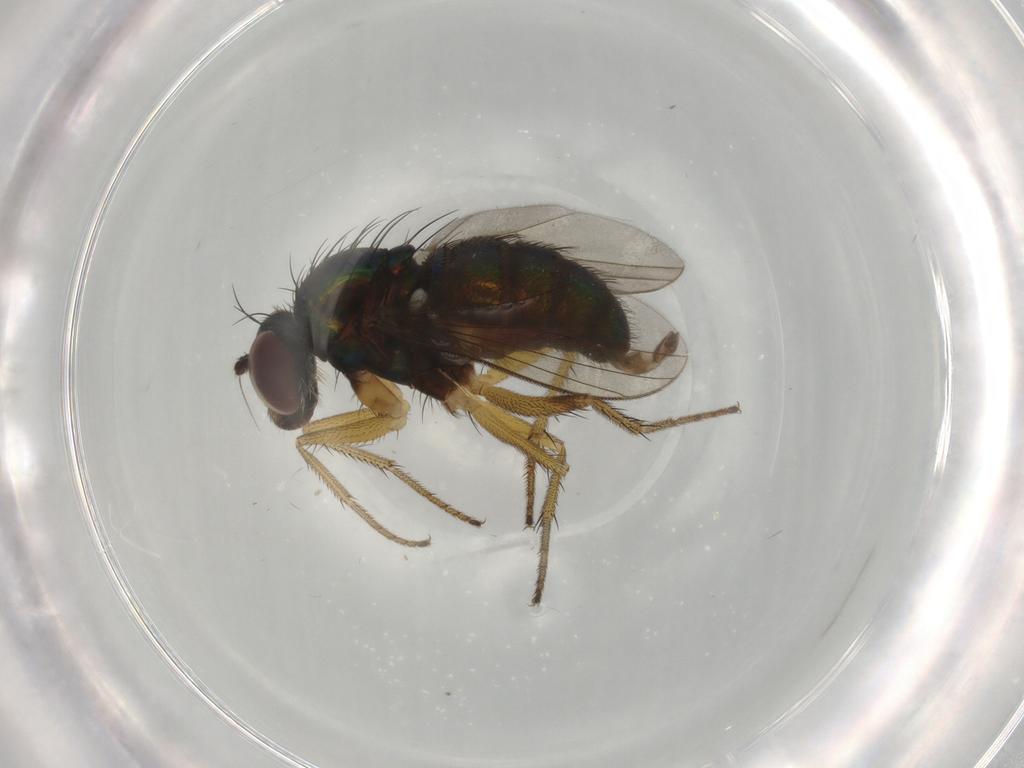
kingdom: Animalia
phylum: Arthropoda
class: Insecta
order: Diptera
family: Dolichopodidae
